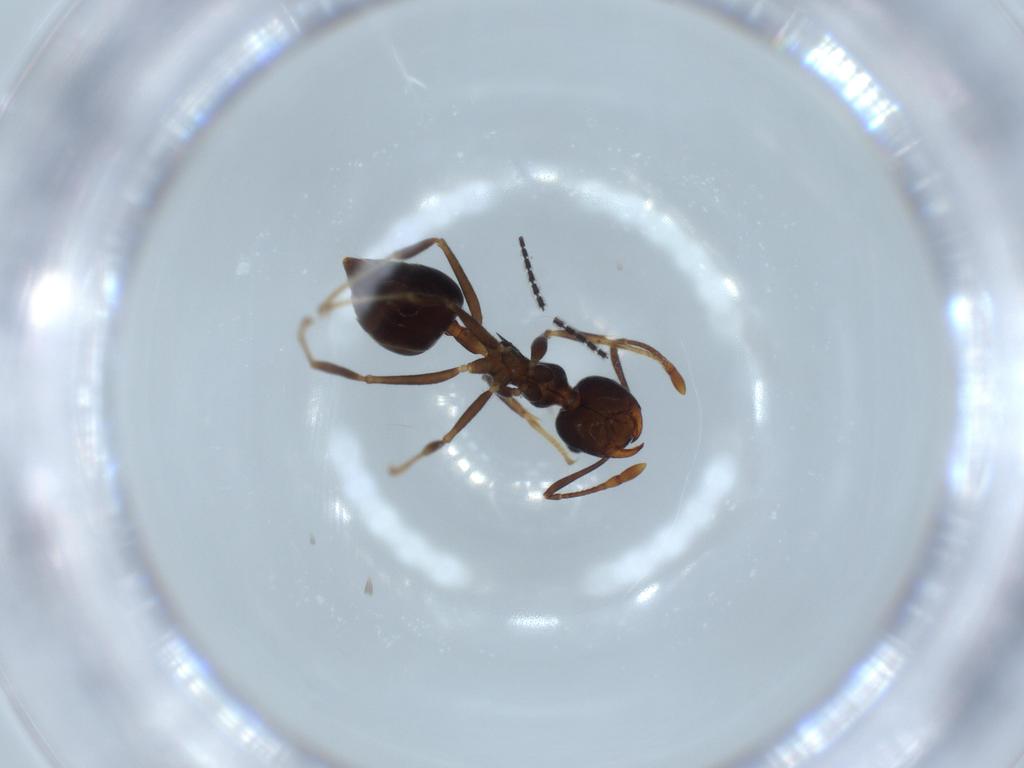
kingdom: Animalia
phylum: Arthropoda
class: Insecta
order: Hymenoptera
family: Formicidae
